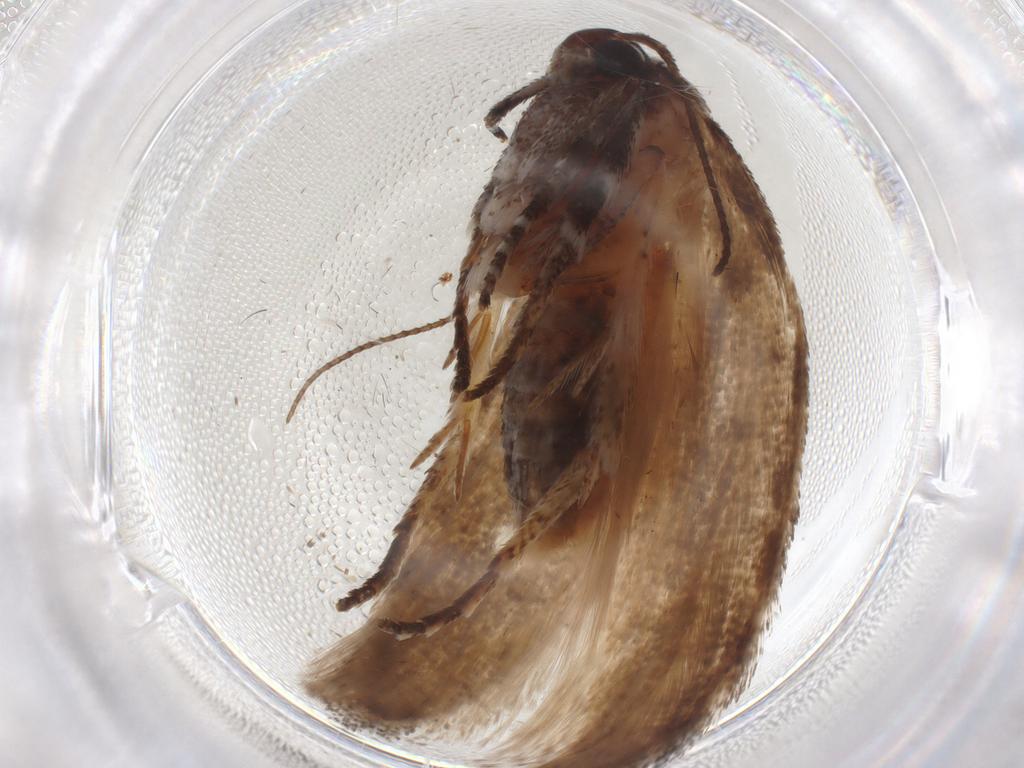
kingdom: Animalia
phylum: Arthropoda
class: Insecta
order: Lepidoptera
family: Cosmopterigidae
